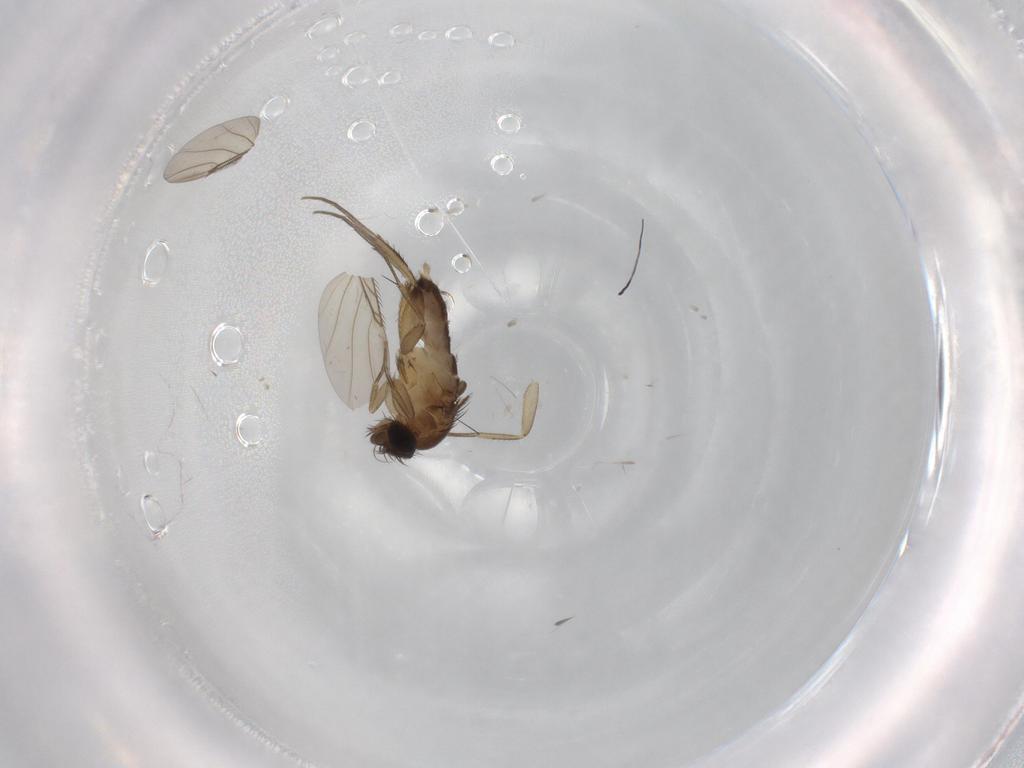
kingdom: Animalia
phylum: Arthropoda
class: Insecta
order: Diptera
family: Phoridae
